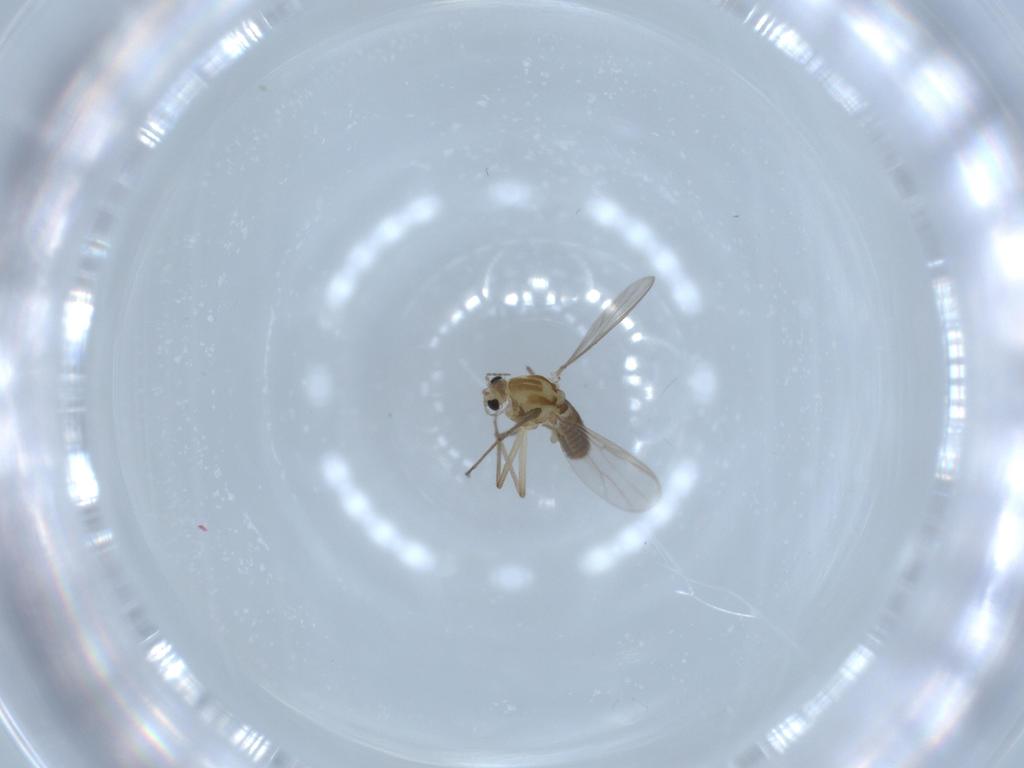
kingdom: Animalia
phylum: Arthropoda
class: Insecta
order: Diptera
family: Chironomidae
